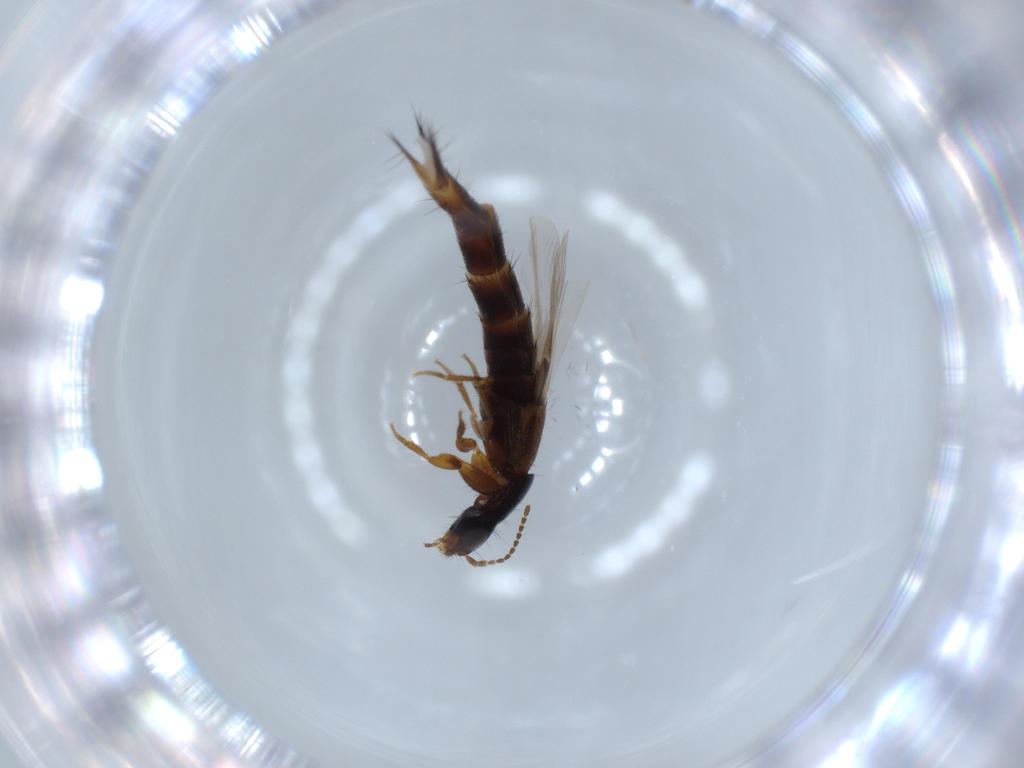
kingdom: Animalia
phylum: Arthropoda
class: Insecta
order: Coleoptera
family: Staphylinidae
